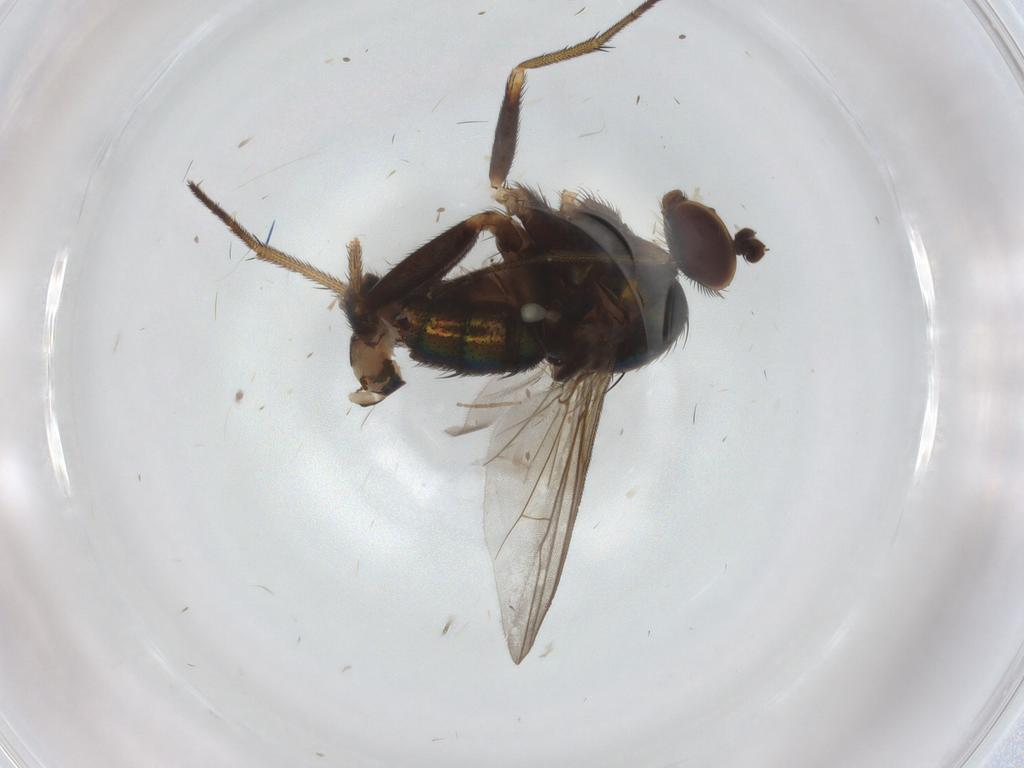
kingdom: Animalia
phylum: Arthropoda
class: Insecta
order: Diptera
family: Dolichopodidae
